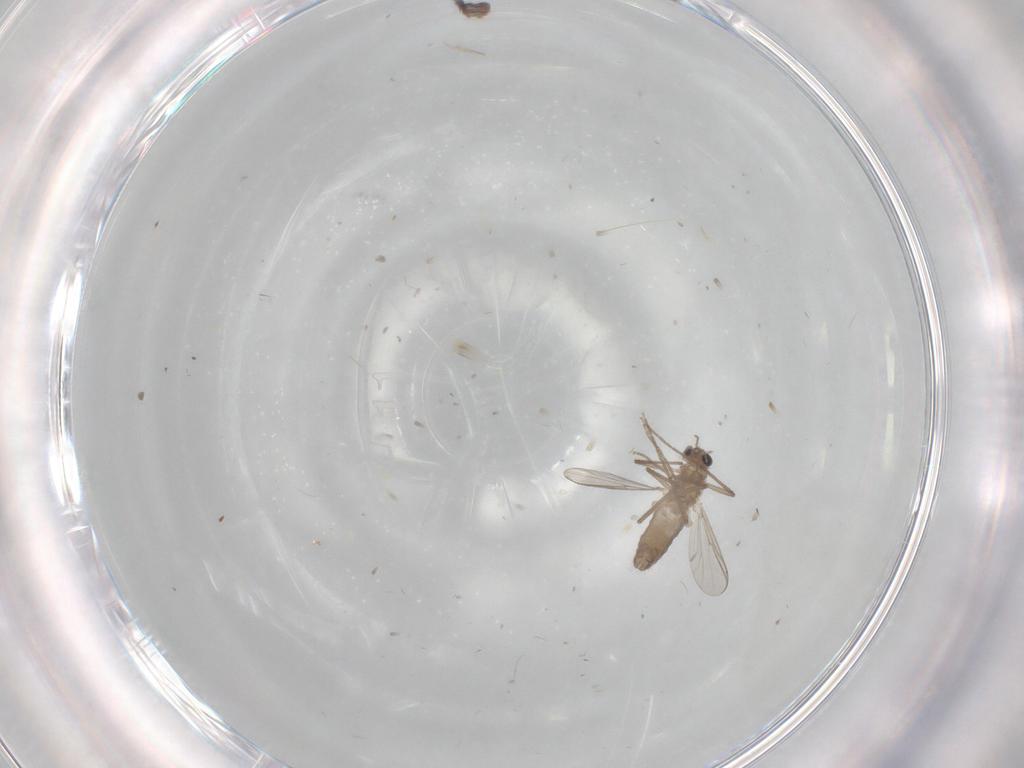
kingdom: Animalia
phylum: Arthropoda
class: Insecta
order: Diptera
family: Chironomidae
